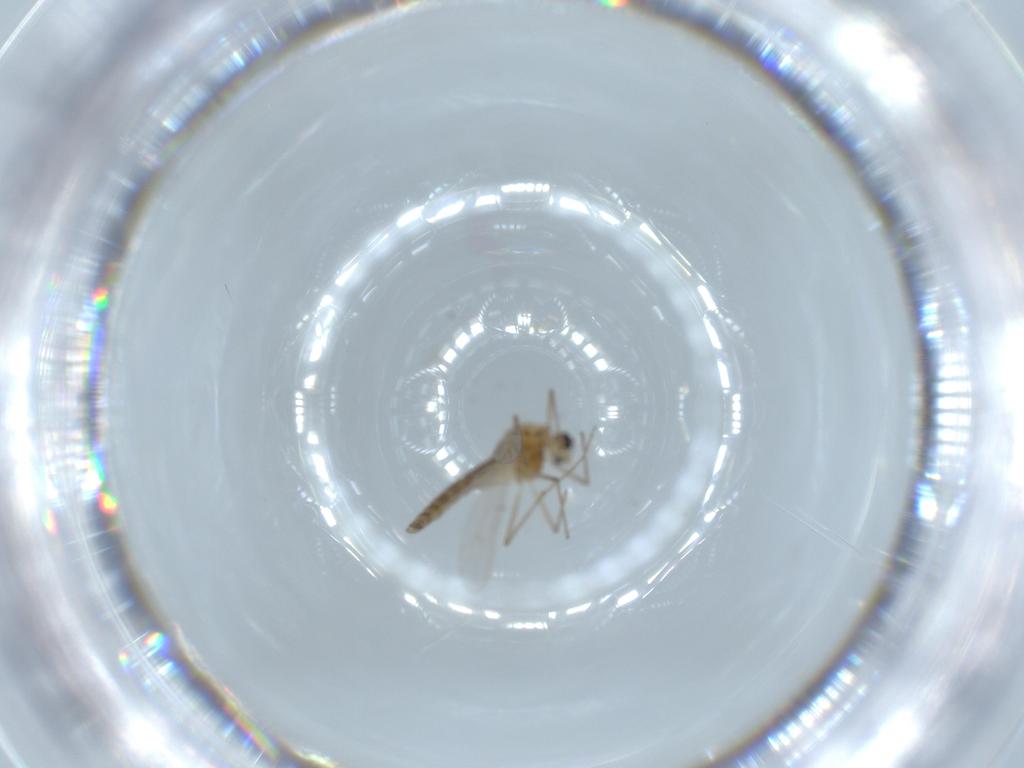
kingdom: Animalia
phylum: Arthropoda
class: Insecta
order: Diptera
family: Chironomidae
